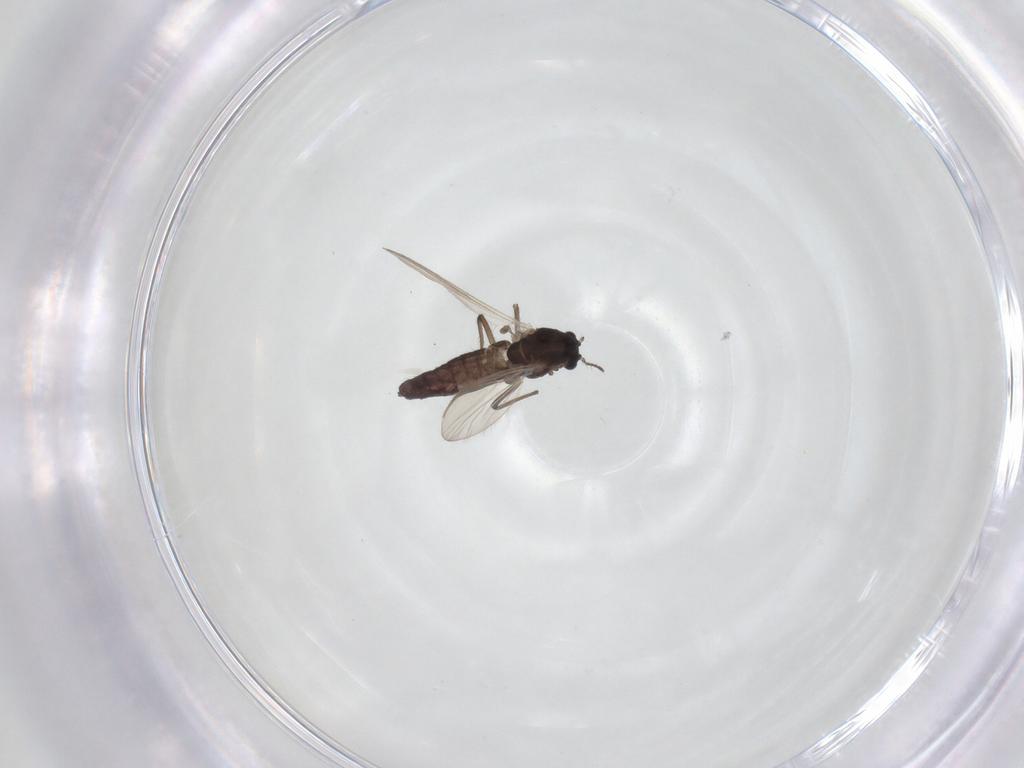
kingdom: Animalia
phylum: Arthropoda
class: Insecta
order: Diptera
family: Chironomidae
